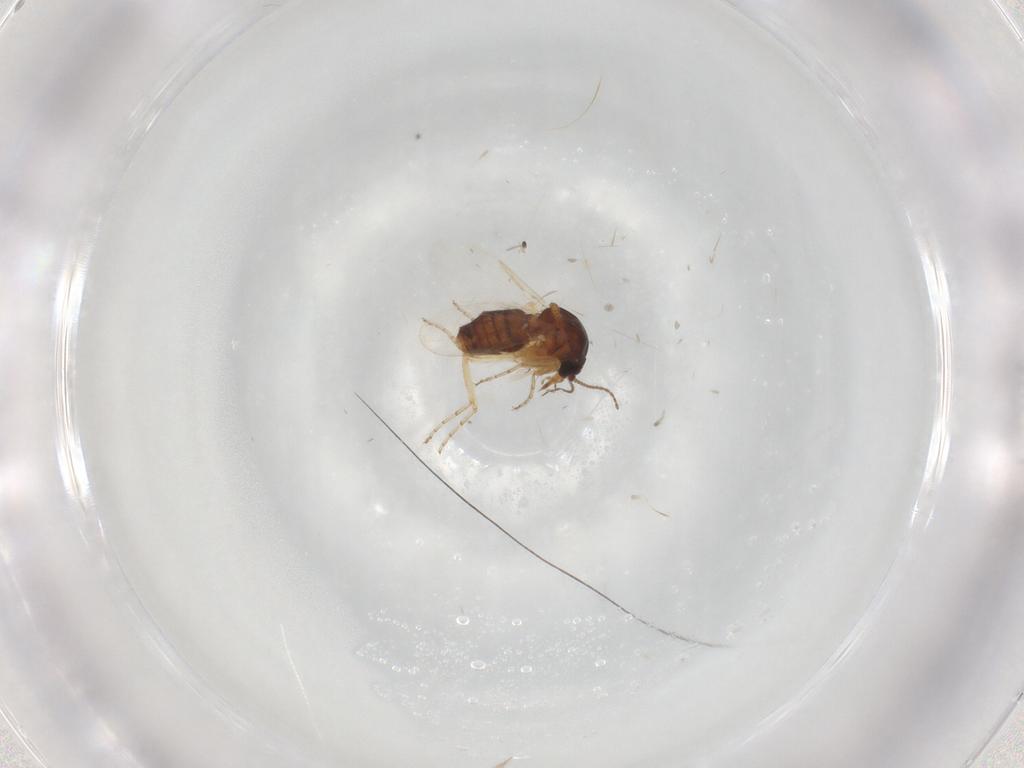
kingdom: Animalia
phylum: Arthropoda
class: Insecta
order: Diptera
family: Ceratopogonidae
